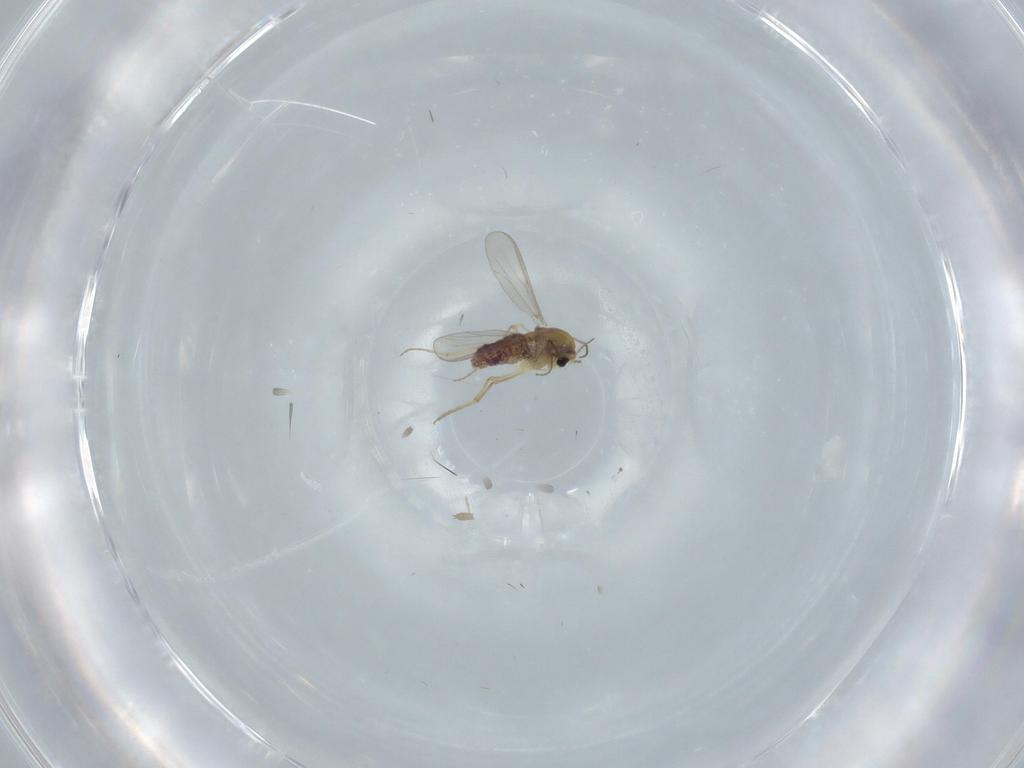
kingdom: Animalia
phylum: Arthropoda
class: Insecta
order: Diptera
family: Chironomidae
